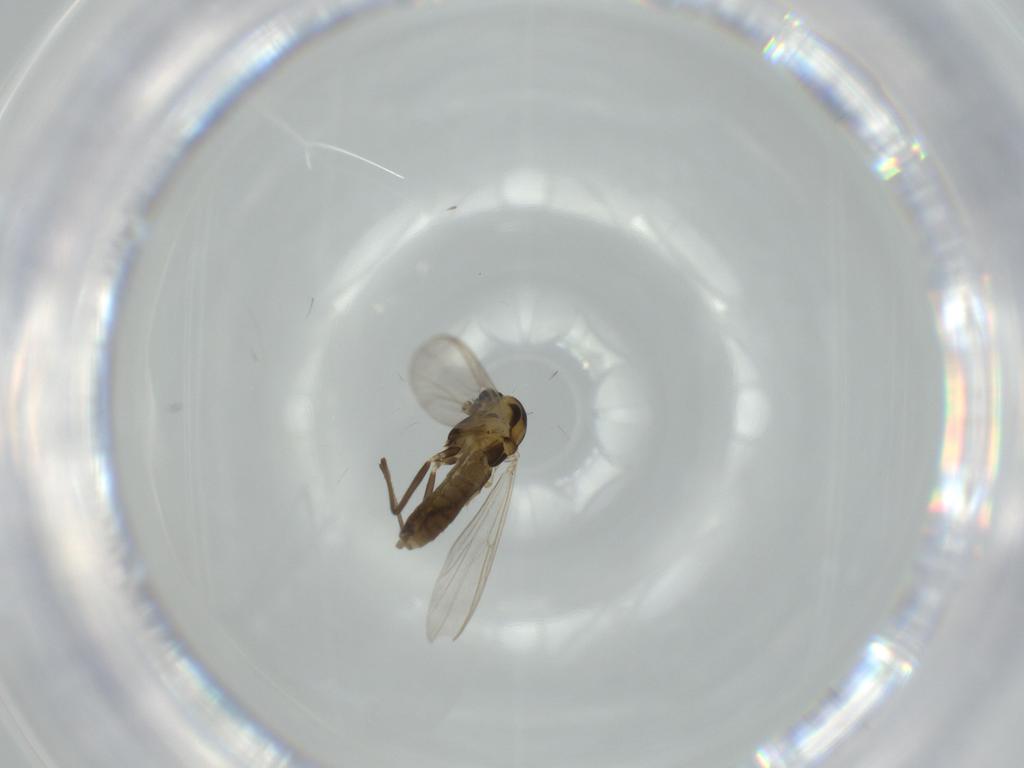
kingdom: Animalia
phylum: Arthropoda
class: Insecta
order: Diptera
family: Chironomidae
